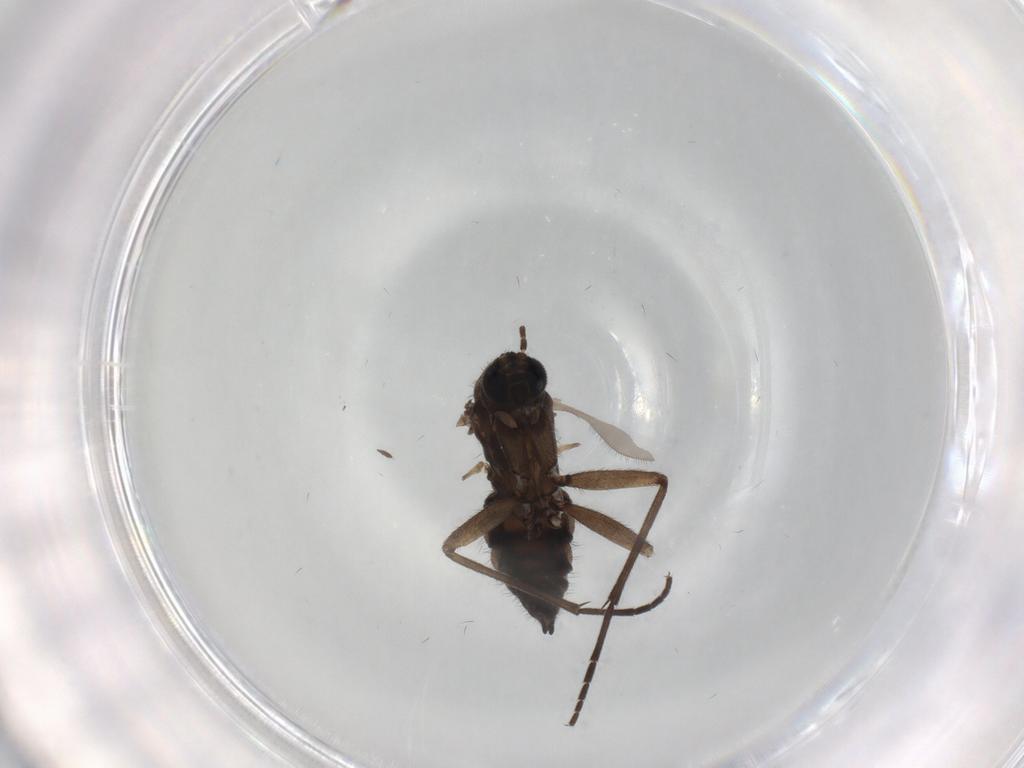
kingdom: Animalia
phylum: Arthropoda
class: Insecta
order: Diptera
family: Sciaridae
